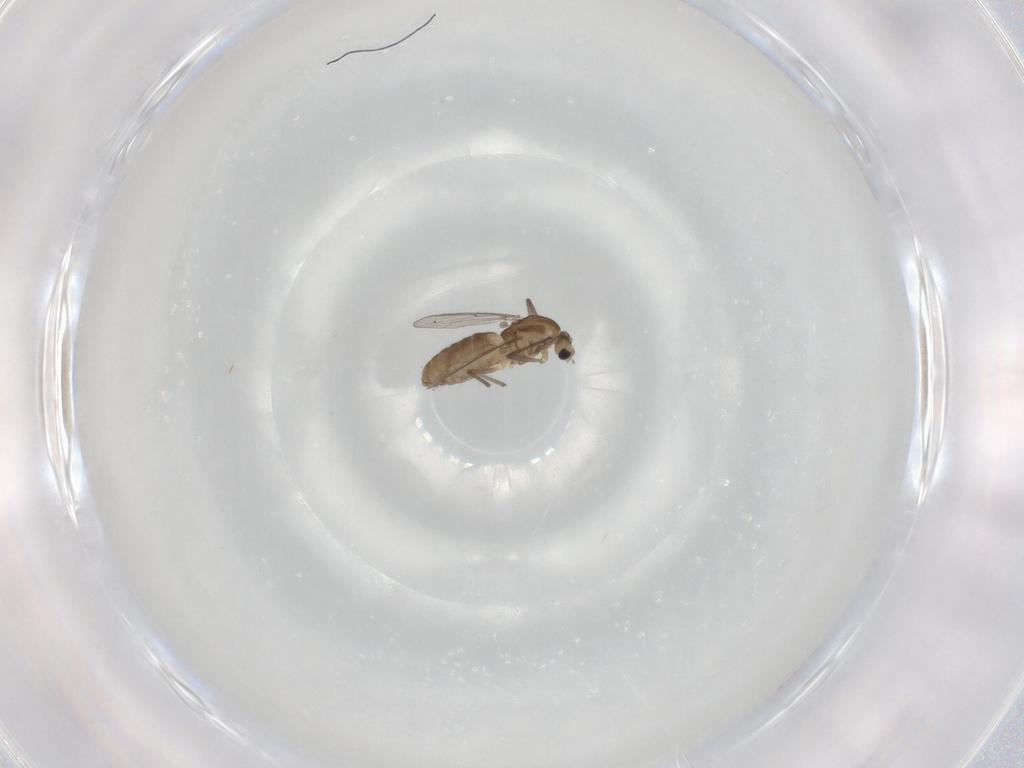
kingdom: Animalia
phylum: Arthropoda
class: Insecta
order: Diptera
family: Chironomidae
